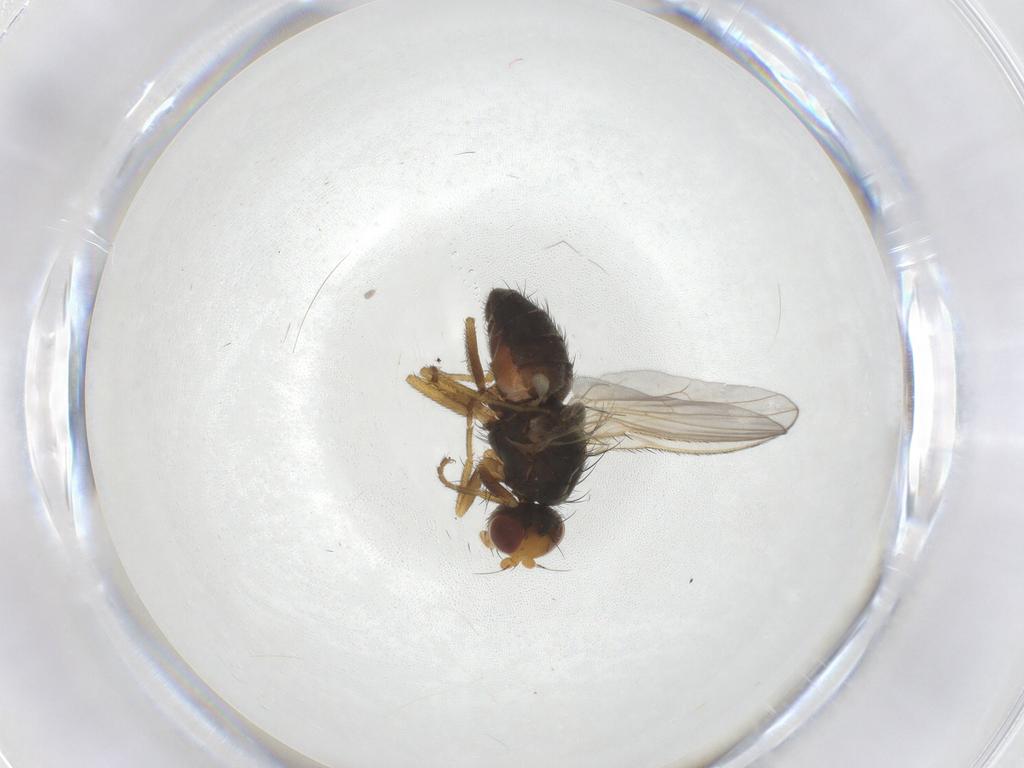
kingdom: Animalia
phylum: Arthropoda
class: Insecta
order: Diptera
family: Heleomyzidae
